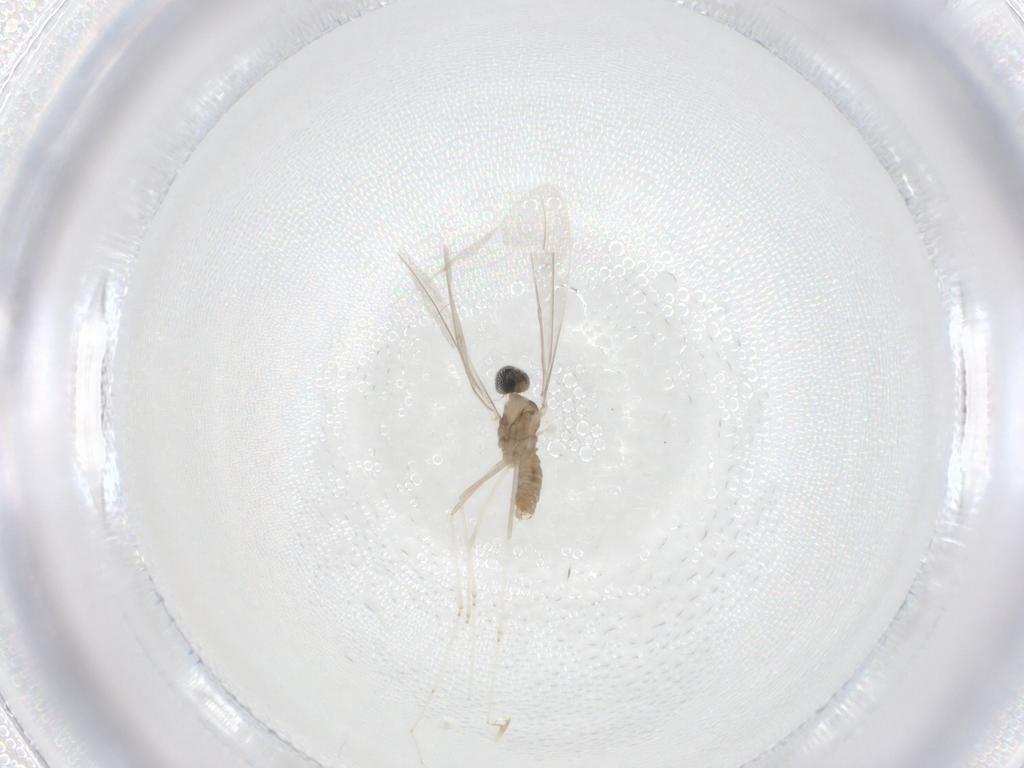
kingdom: Animalia
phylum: Arthropoda
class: Insecta
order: Diptera
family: Cecidomyiidae
